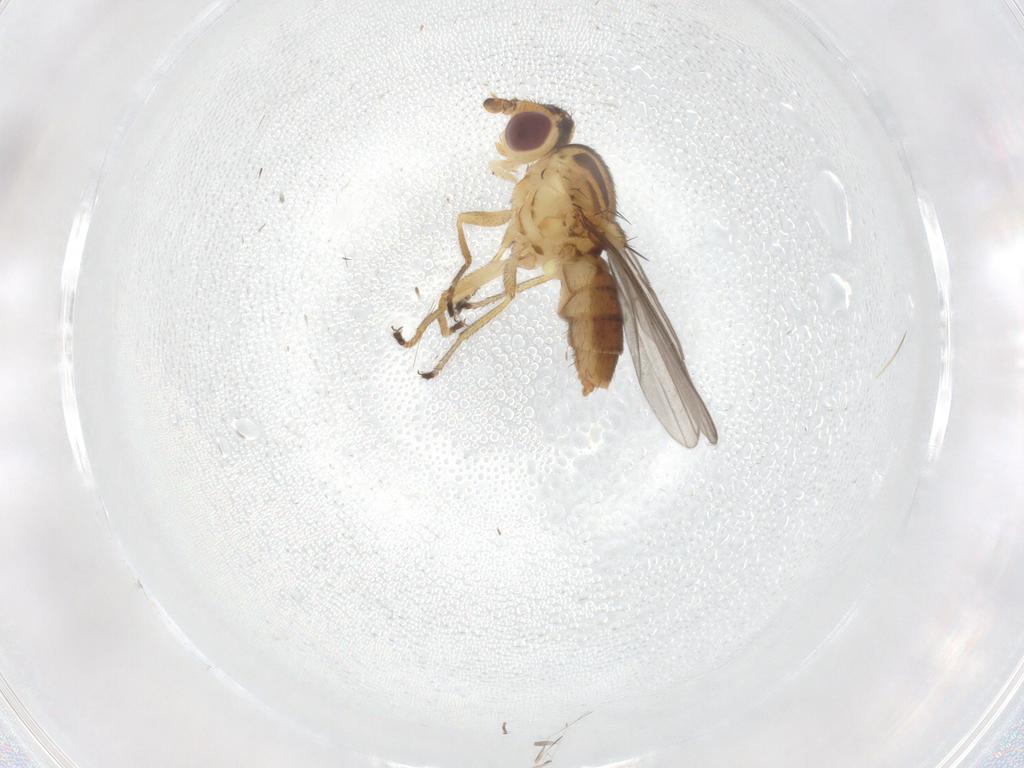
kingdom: Animalia
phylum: Arthropoda
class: Insecta
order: Diptera
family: Chloropidae
